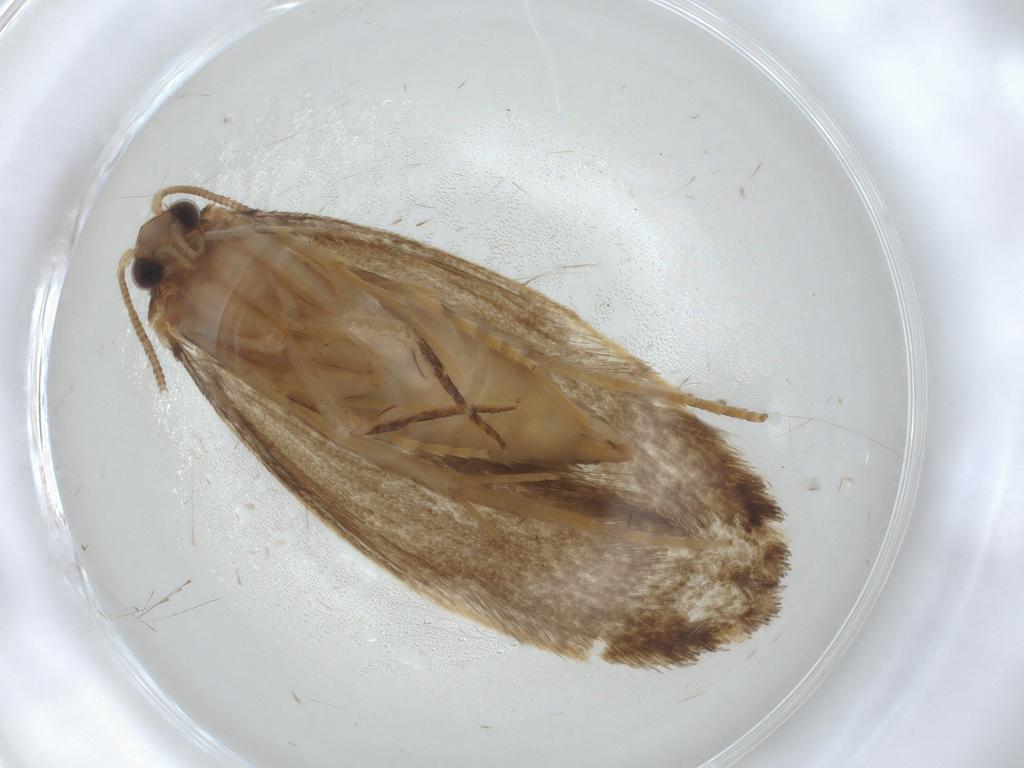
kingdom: Animalia
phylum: Arthropoda
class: Insecta
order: Lepidoptera
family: Tineidae
